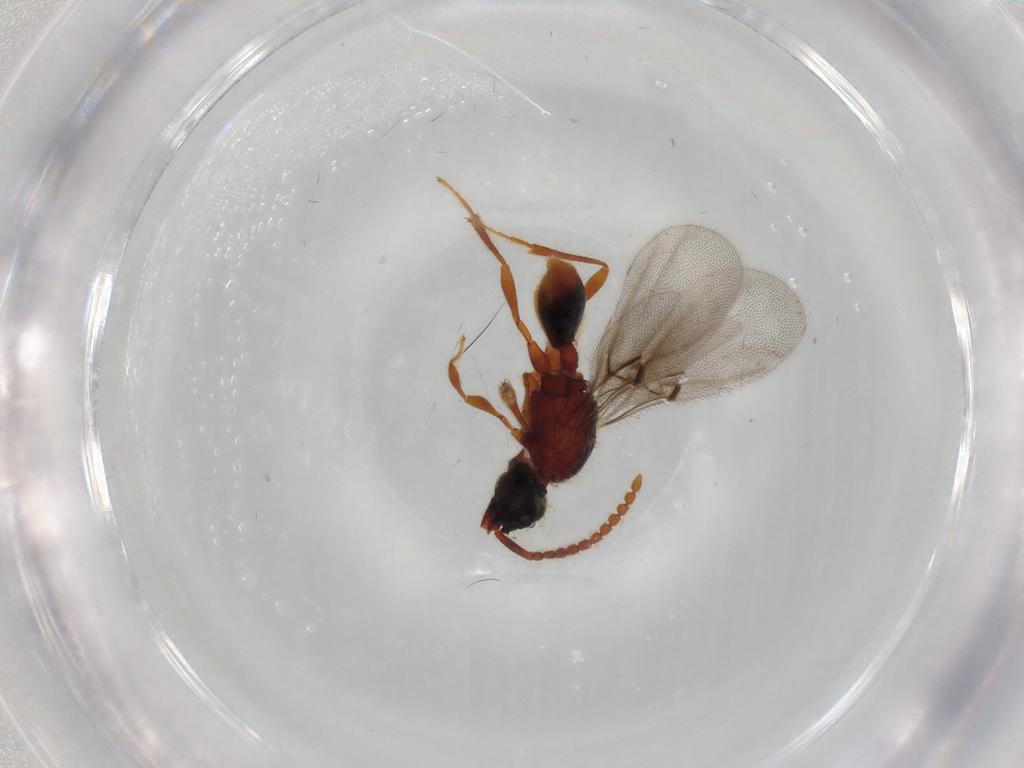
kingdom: Animalia
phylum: Arthropoda
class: Insecta
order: Hymenoptera
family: Diapriidae
